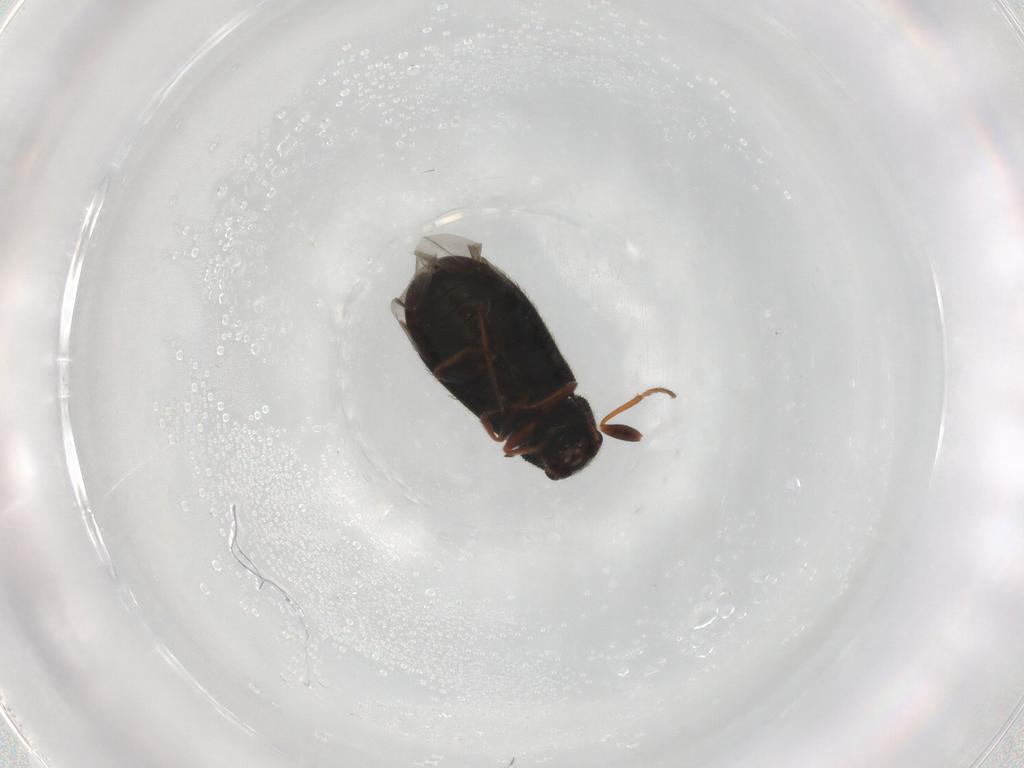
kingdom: Animalia
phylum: Arthropoda
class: Insecta
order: Coleoptera
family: Melyridae
